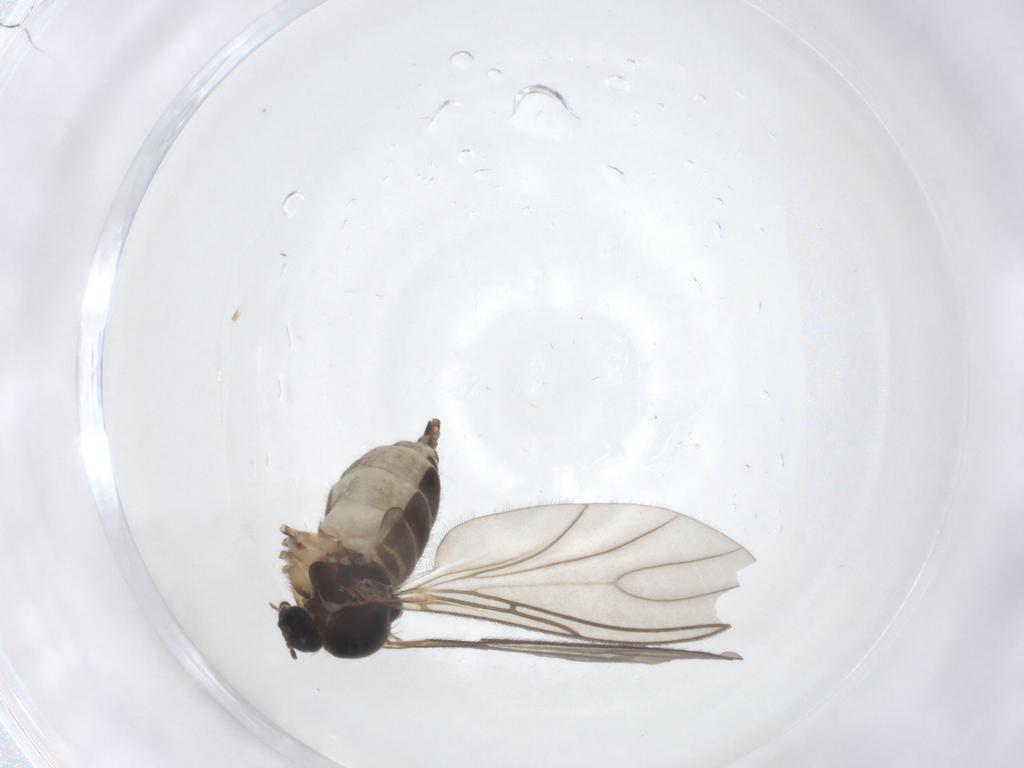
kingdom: Animalia
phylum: Arthropoda
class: Insecta
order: Diptera
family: Sciaridae
